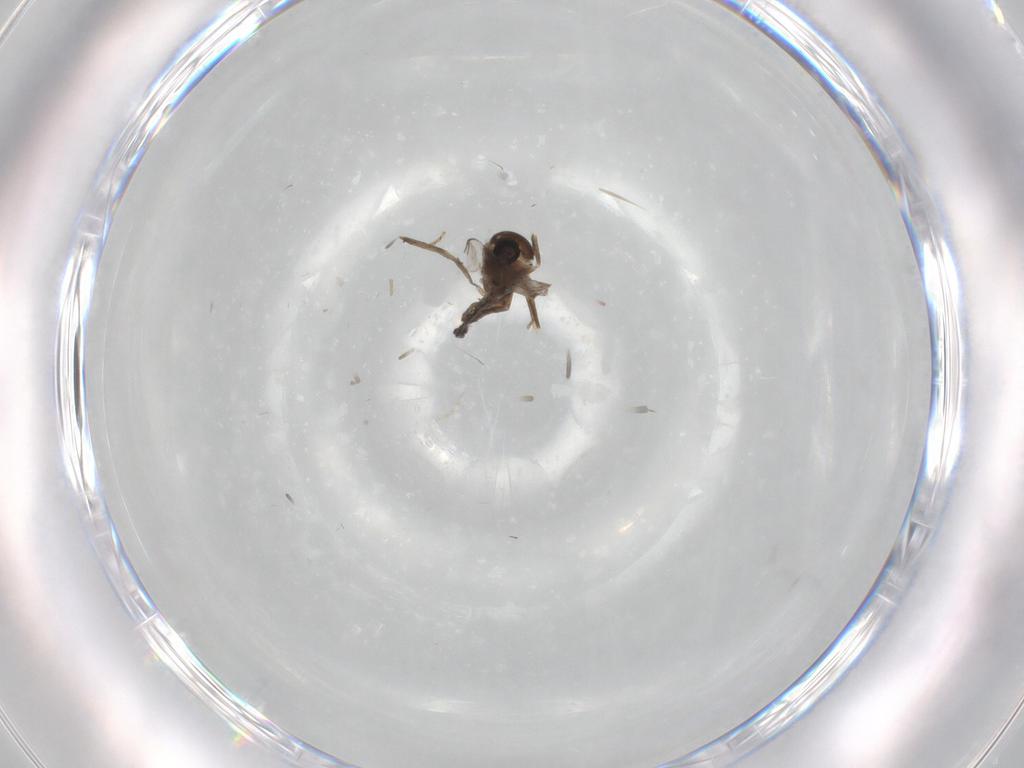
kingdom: Animalia
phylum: Arthropoda
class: Insecta
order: Diptera
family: Chironomidae
